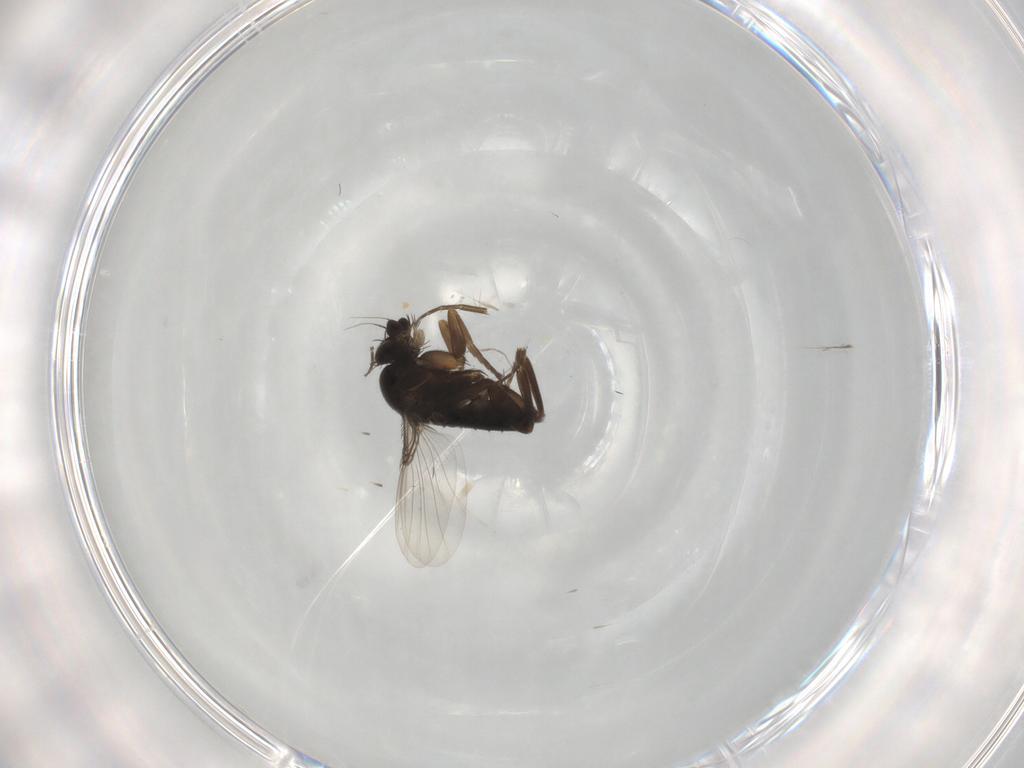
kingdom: Animalia
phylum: Arthropoda
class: Insecta
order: Diptera
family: Phoridae
